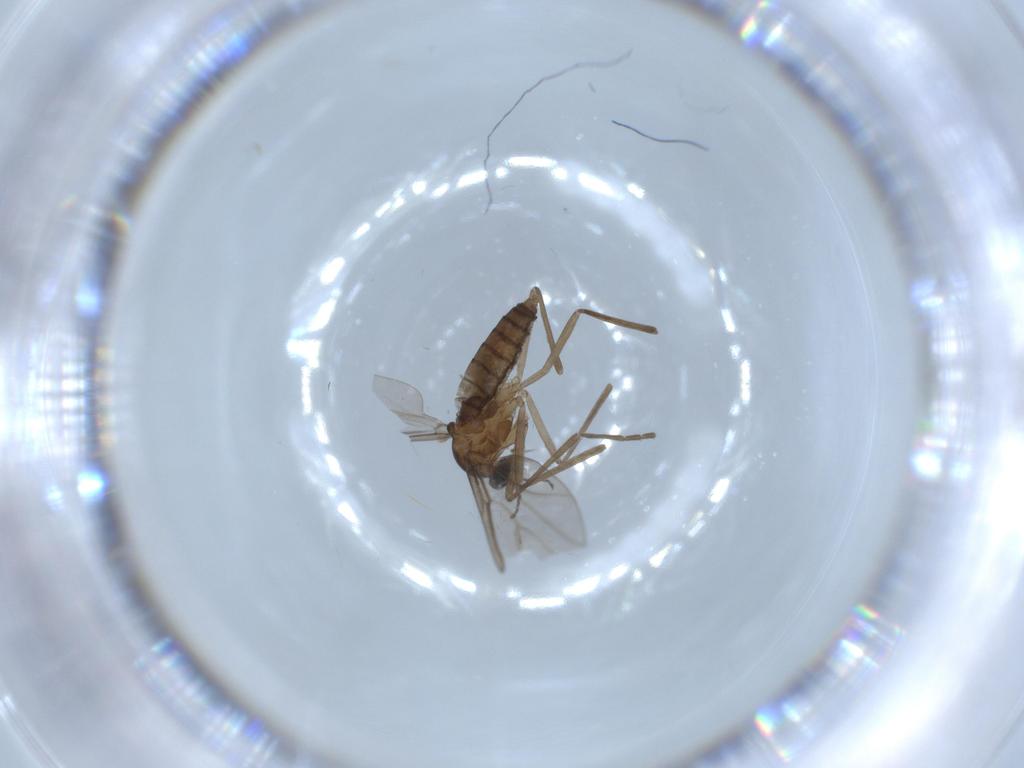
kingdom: Animalia
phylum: Arthropoda
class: Insecta
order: Diptera
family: Cecidomyiidae
